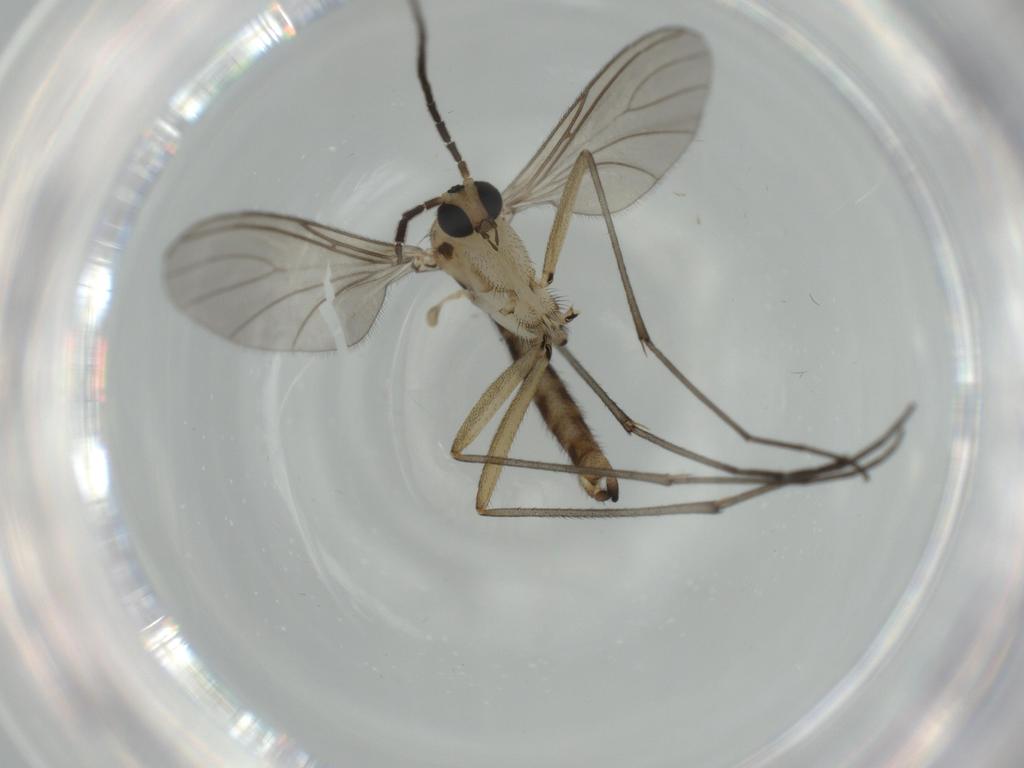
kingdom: Animalia
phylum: Arthropoda
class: Insecta
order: Diptera
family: Sciaridae
